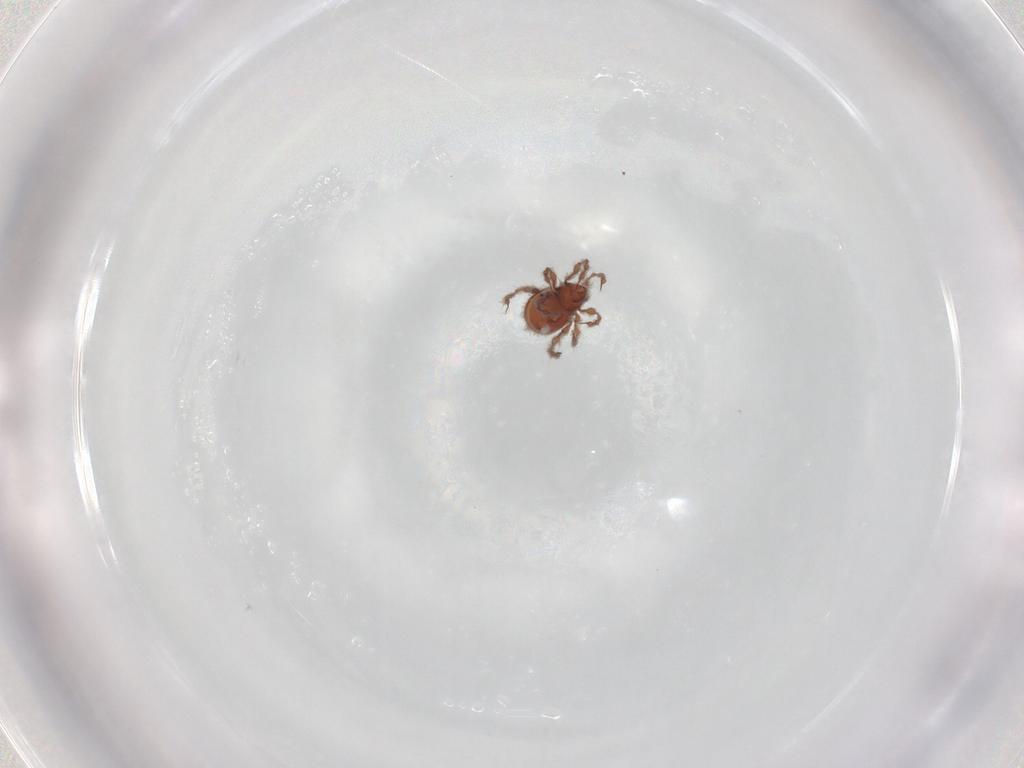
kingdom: Animalia
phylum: Arthropoda
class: Arachnida
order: Sarcoptiformes
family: Damaeidae
